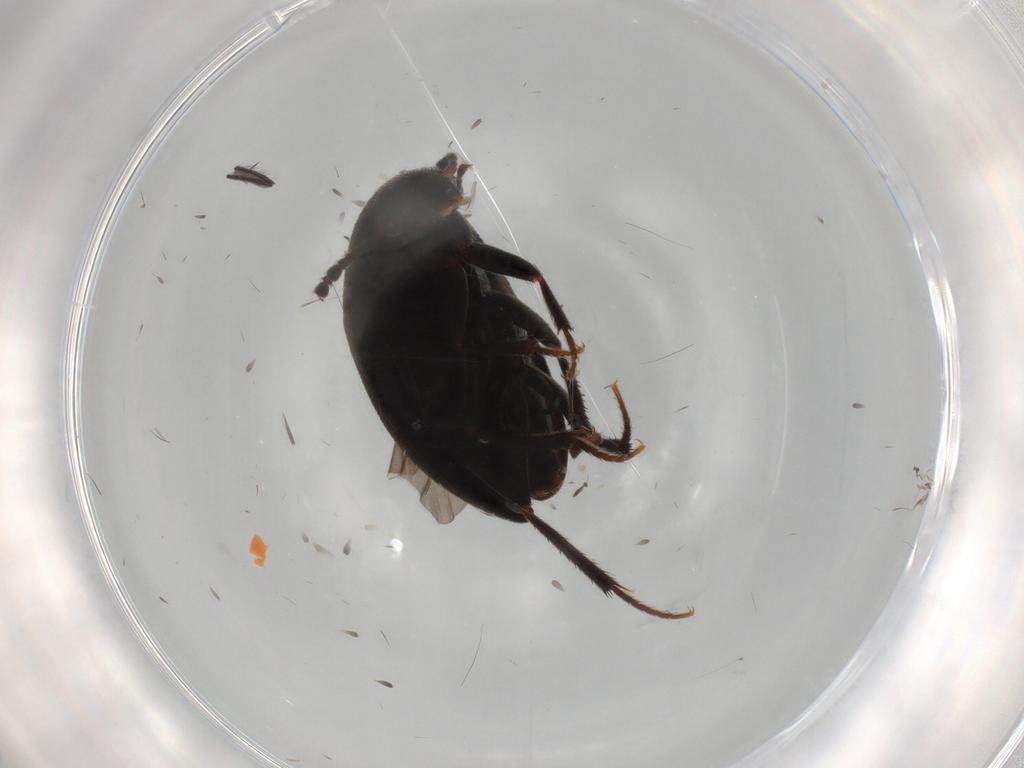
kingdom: Animalia
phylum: Arthropoda
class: Insecta
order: Coleoptera
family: Leiodidae
